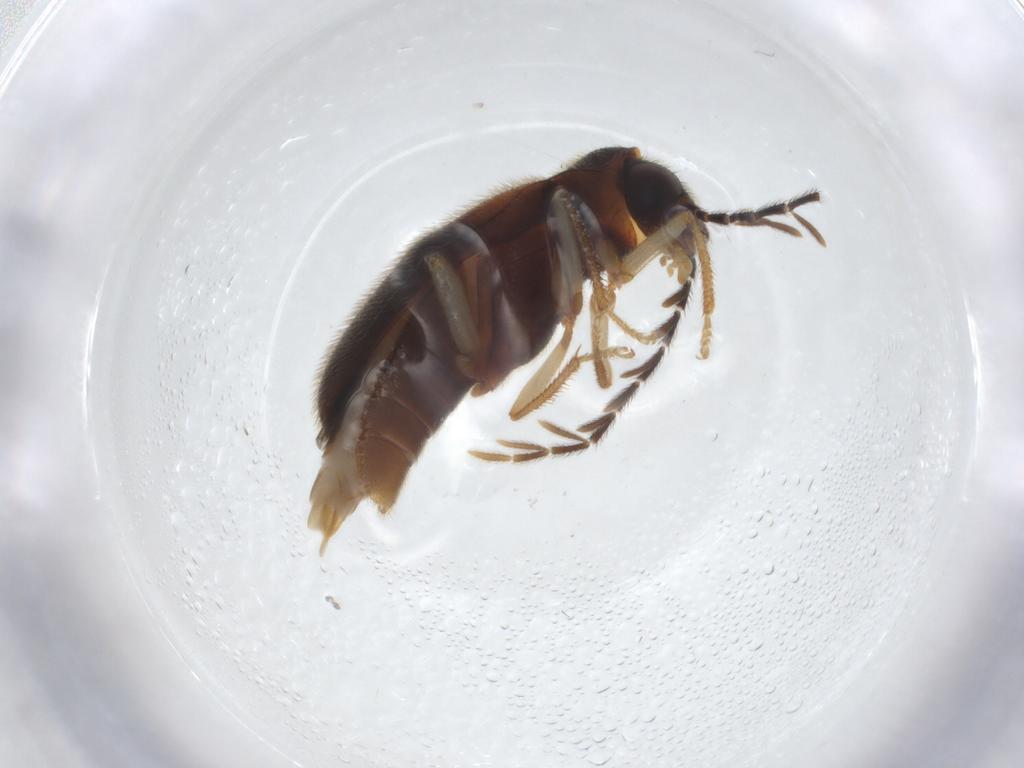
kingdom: Animalia
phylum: Arthropoda
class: Insecta
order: Coleoptera
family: Ptilodactylidae
